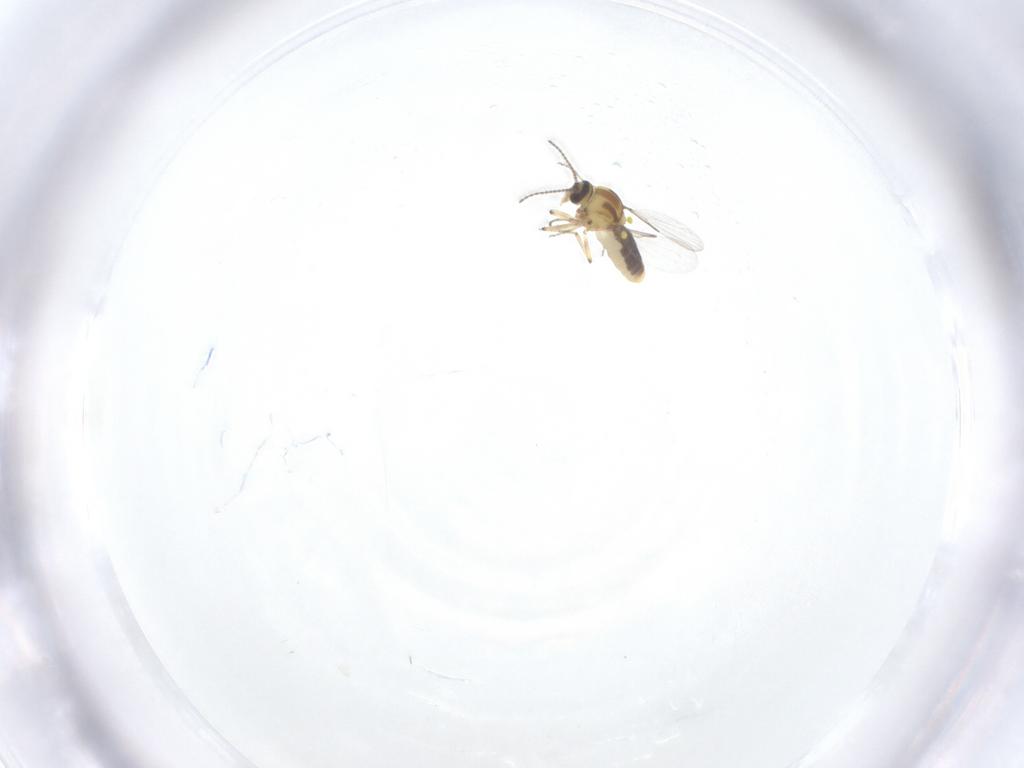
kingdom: Animalia
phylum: Arthropoda
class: Insecta
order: Diptera
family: Ceratopogonidae
